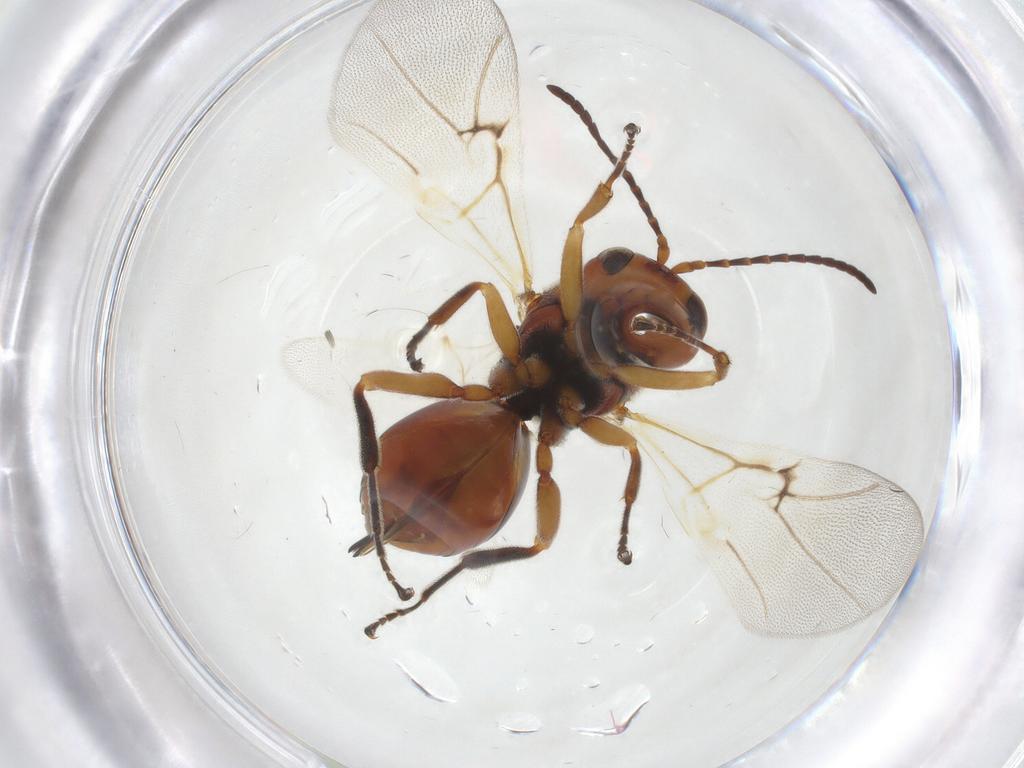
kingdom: Animalia
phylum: Arthropoda
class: Insecta
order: Hymenoptera
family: Cynipidae
